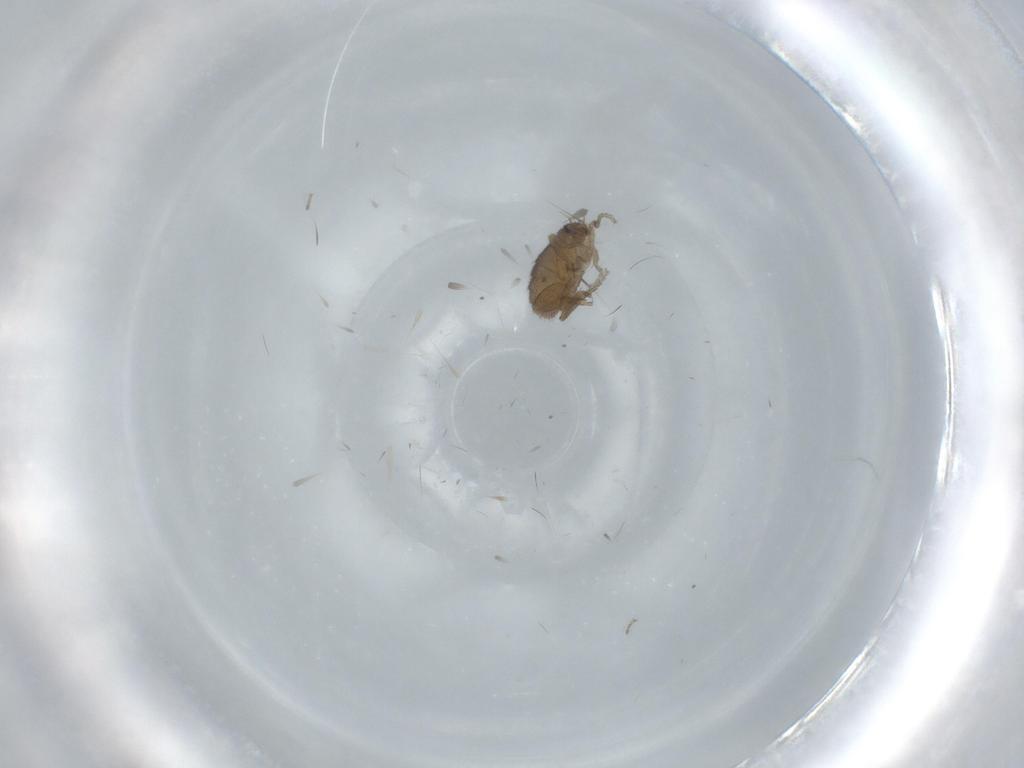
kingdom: Animalia
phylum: Arthropoda
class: Insecta
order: Diptera
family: Phoridae
